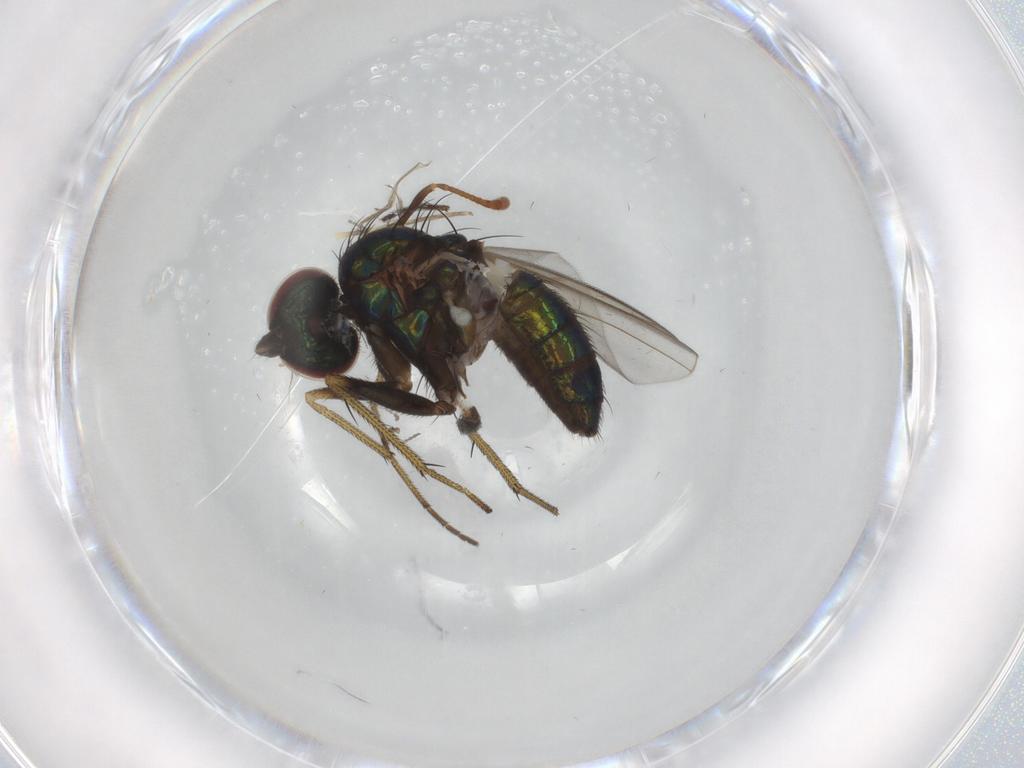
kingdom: Animalia
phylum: Arthropoda
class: Insecta
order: Diptera
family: Dolichopodidae
